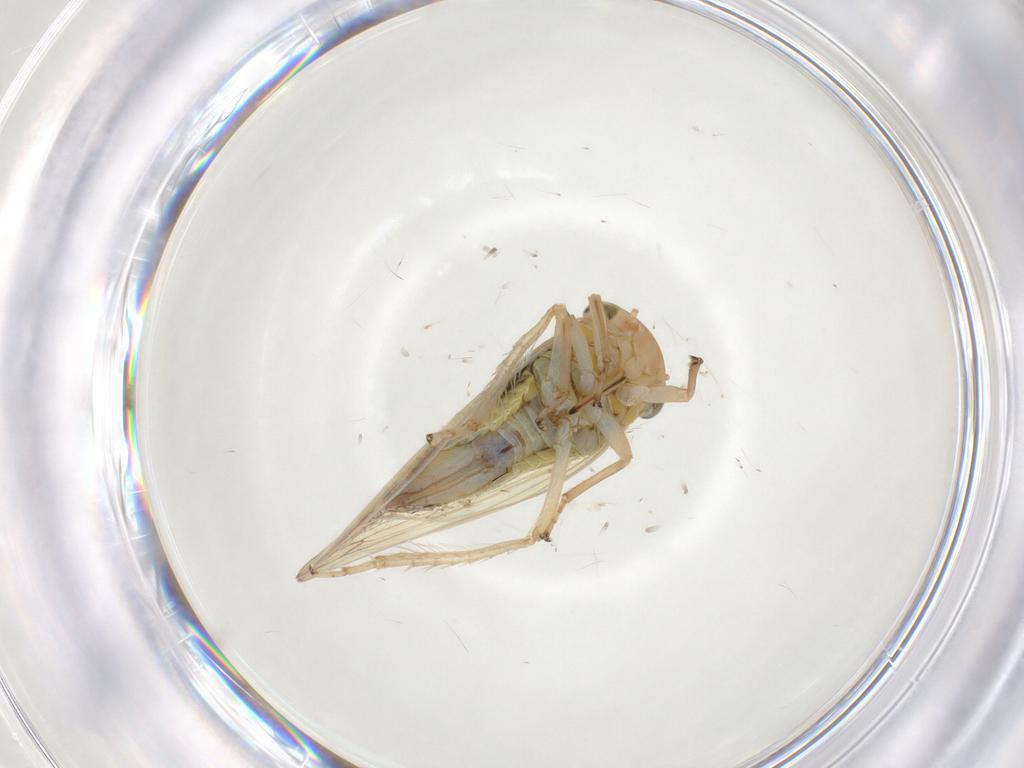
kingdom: Animalia
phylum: Arthropoda
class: Insecta
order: Hemiptera
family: Cicadellidae
